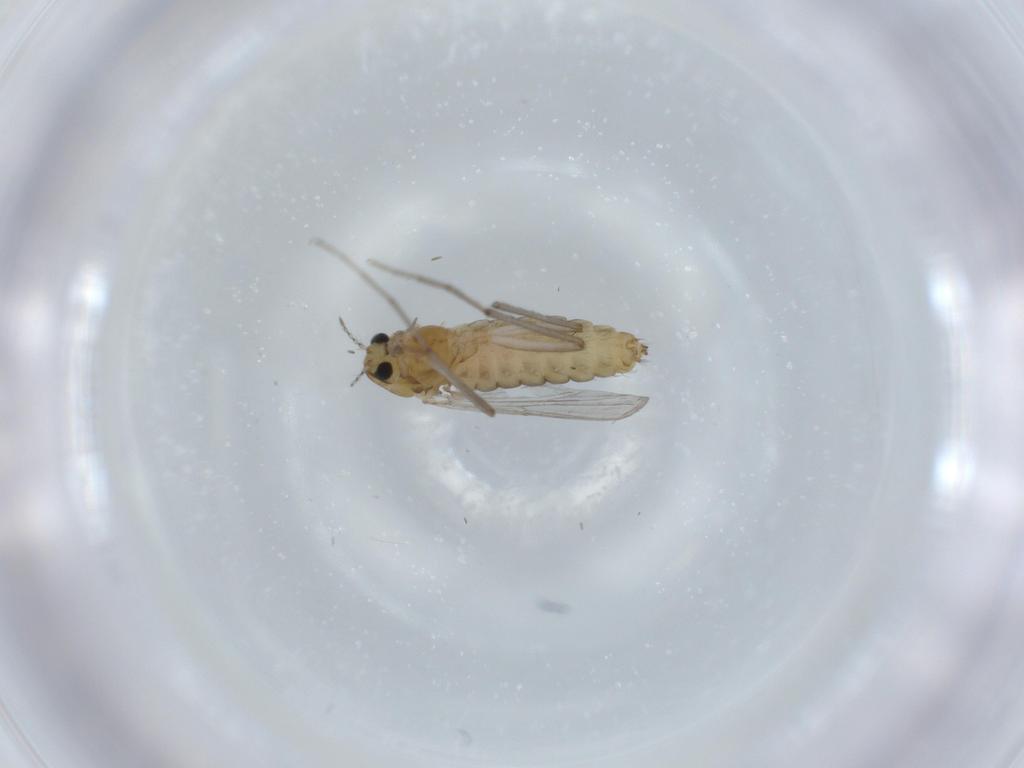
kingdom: Animalia
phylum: Arthropoda
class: Insecta
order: Diptera
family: Chironomidae
